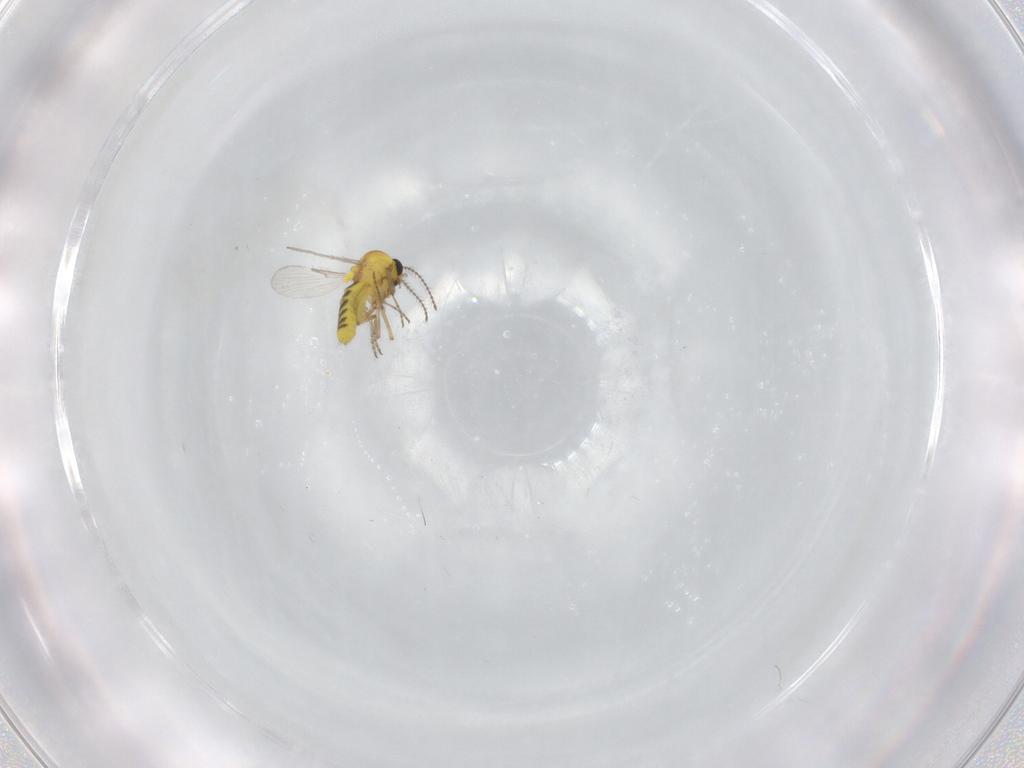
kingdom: Animalia
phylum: Arthropoda
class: Insecta
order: Diptera
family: Ceratopogonidae
